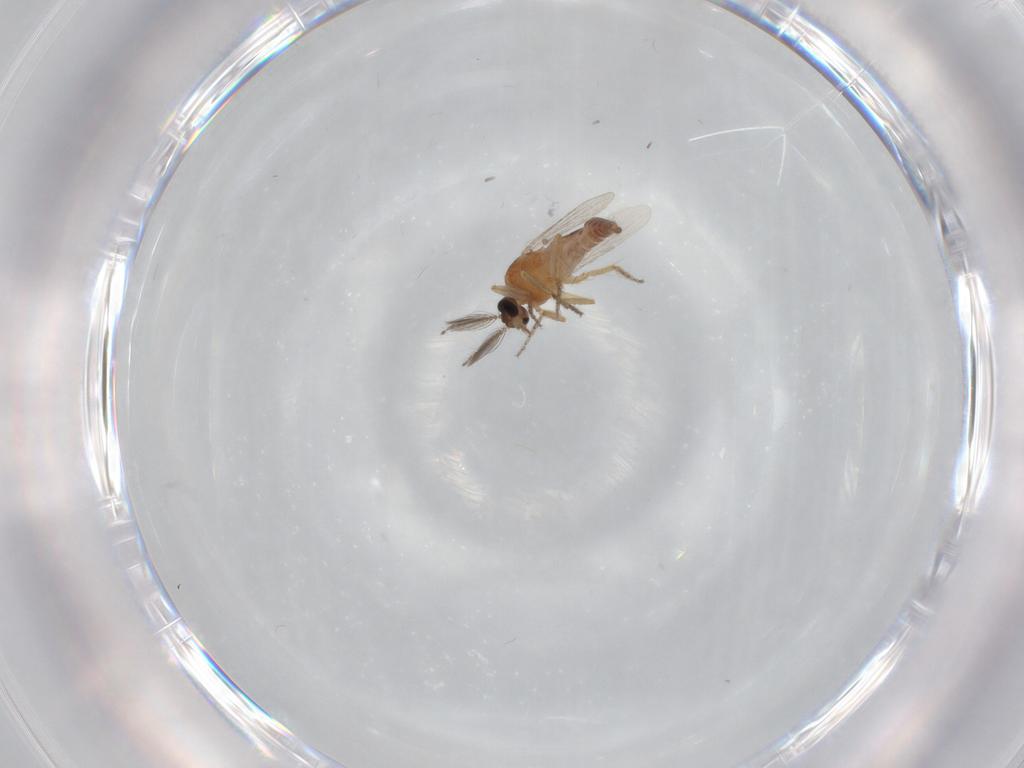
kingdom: Animalia
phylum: Arthropoda
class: Insecta
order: Diptera
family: Ceratopogonidae
